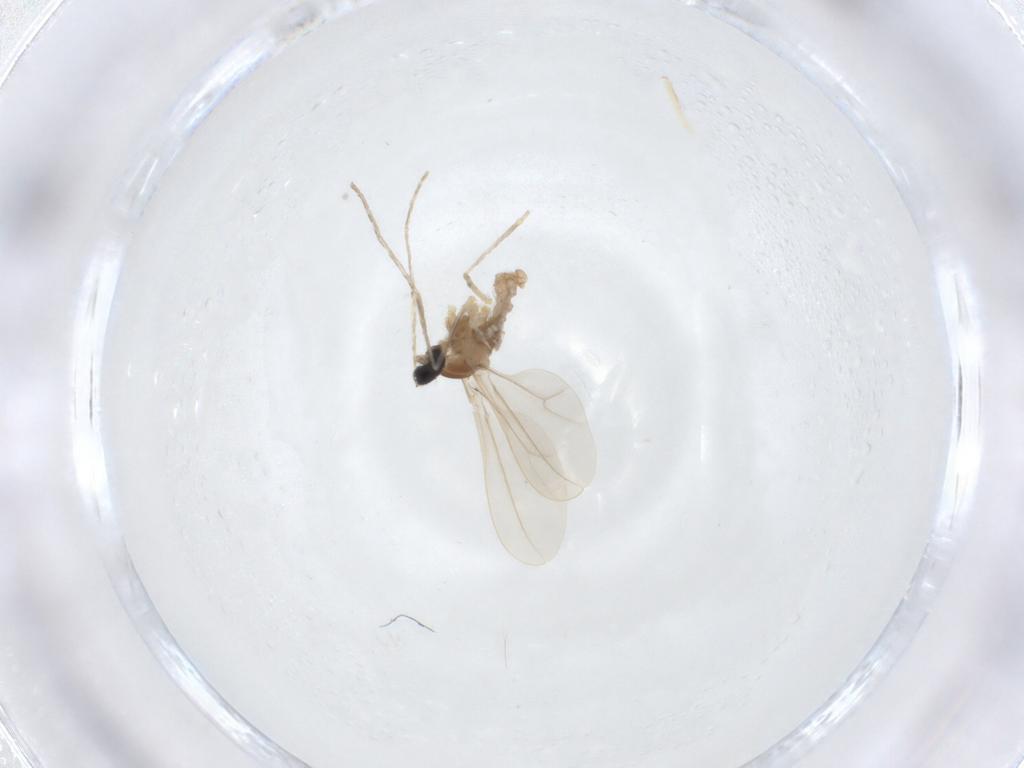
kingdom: Animalia
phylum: Arthropoda
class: Insecta
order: Diptera
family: Cecidomyiidae
